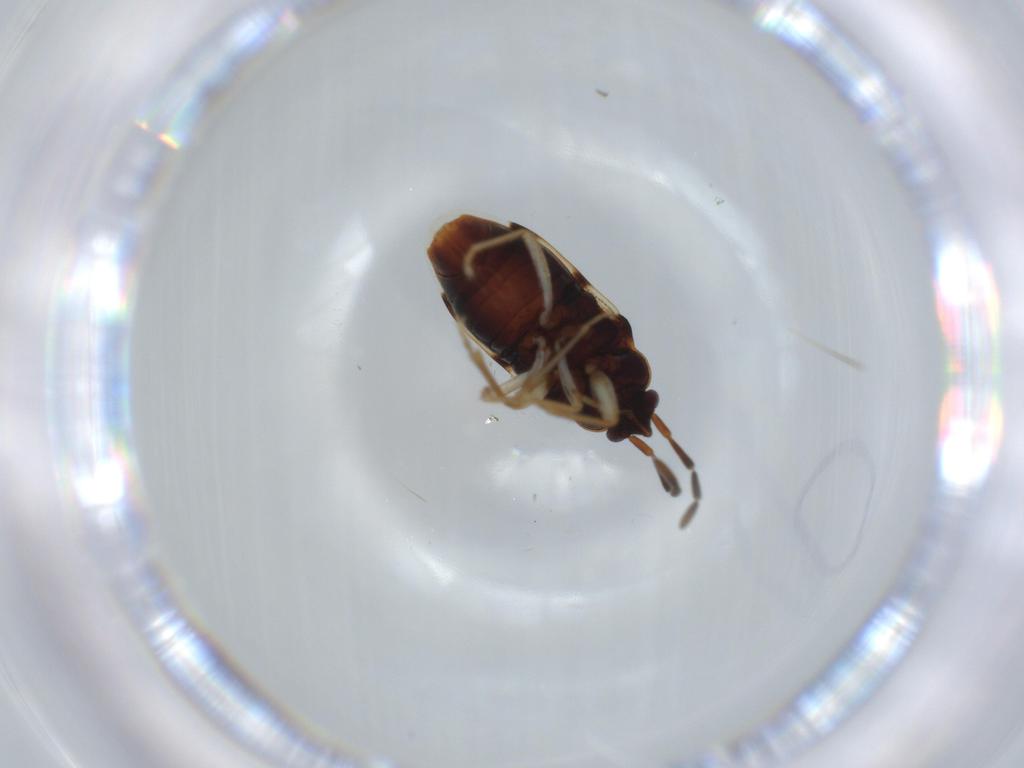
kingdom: Animalia
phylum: Arthropoda
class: Insecta
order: Hemiptera
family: Rhyparochromidae
